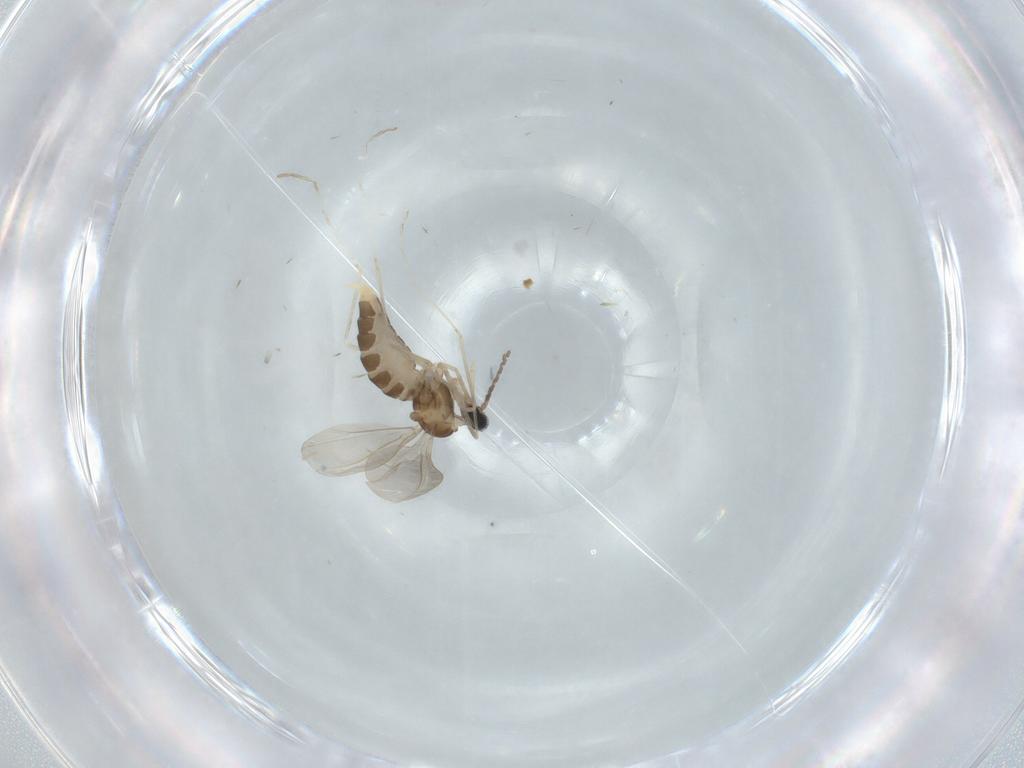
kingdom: Animalia
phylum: Arthropoda
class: Insecta
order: Diptera
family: Cecidomyiidae
